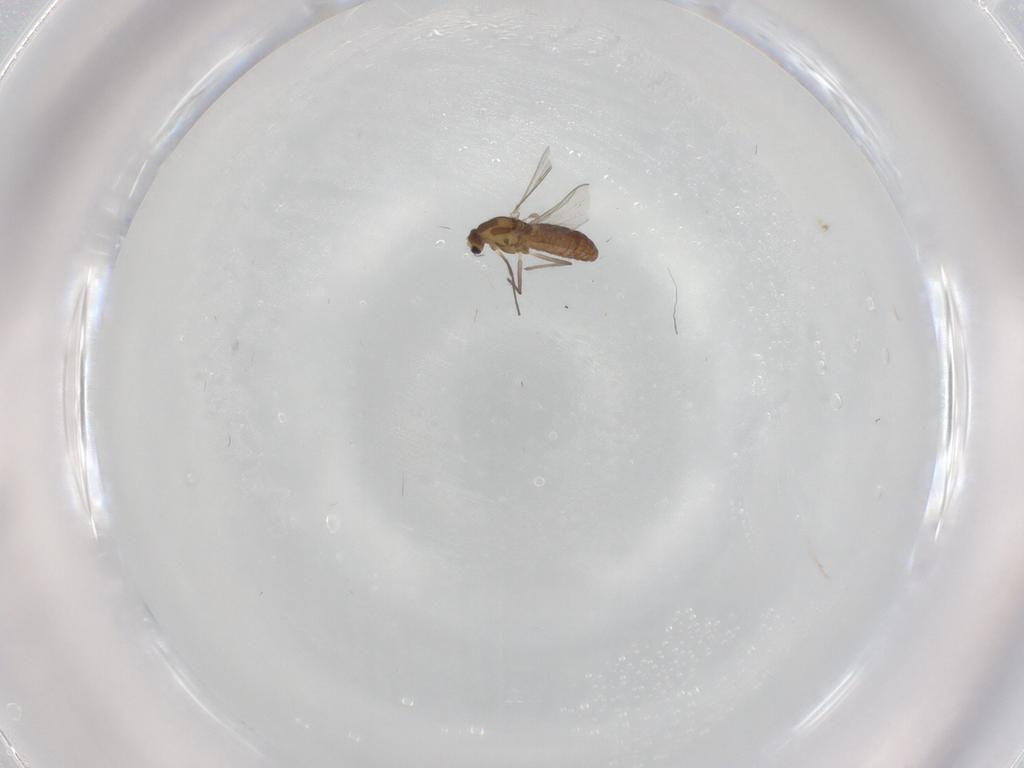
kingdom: Animalia
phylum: Arthropoda
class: Insecta
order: Diptera
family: Chironomidae
